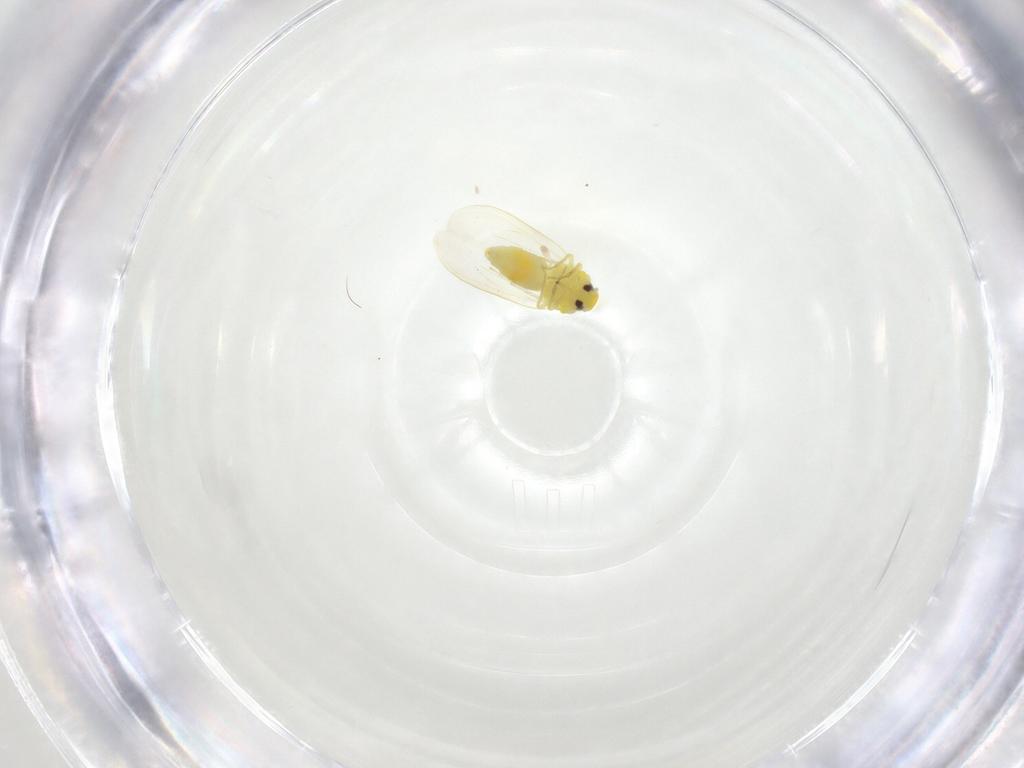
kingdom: Animalia
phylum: Arthropoda
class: Insecta
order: Hemiptera
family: Aleyrodidae
